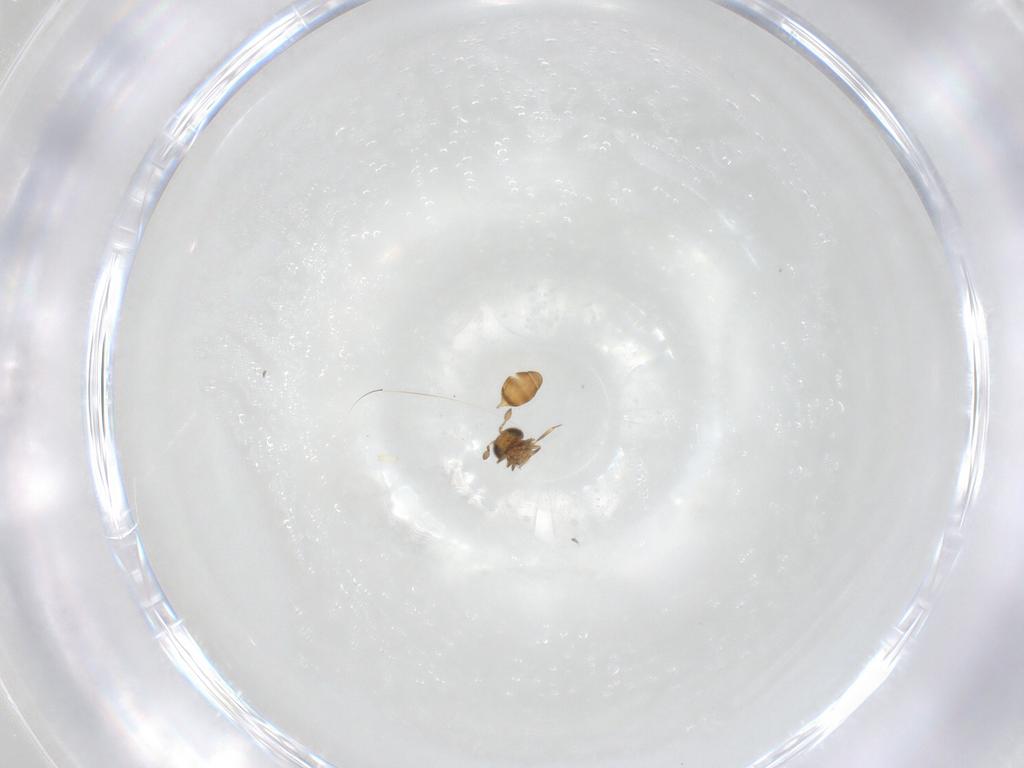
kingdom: Animalia
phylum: Arthropoda
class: Insecta
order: Hymenoptera
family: Scelionidae
